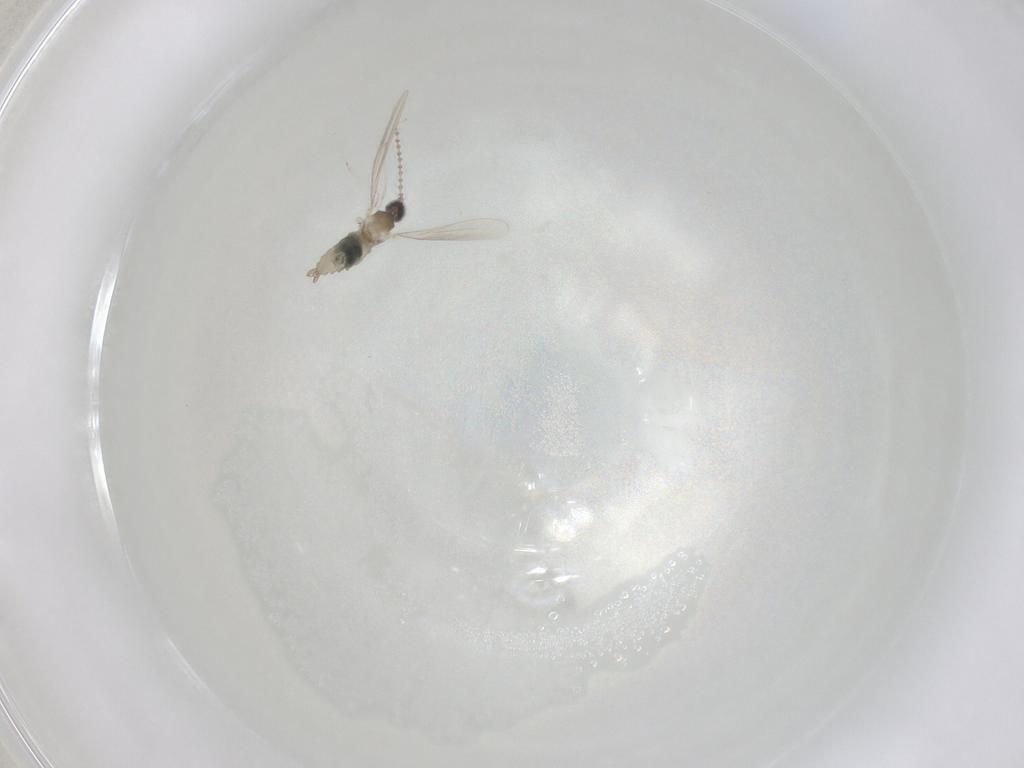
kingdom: Animalia
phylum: Arthropoda
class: Insecta
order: Diptera
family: Ceratopogonidae
